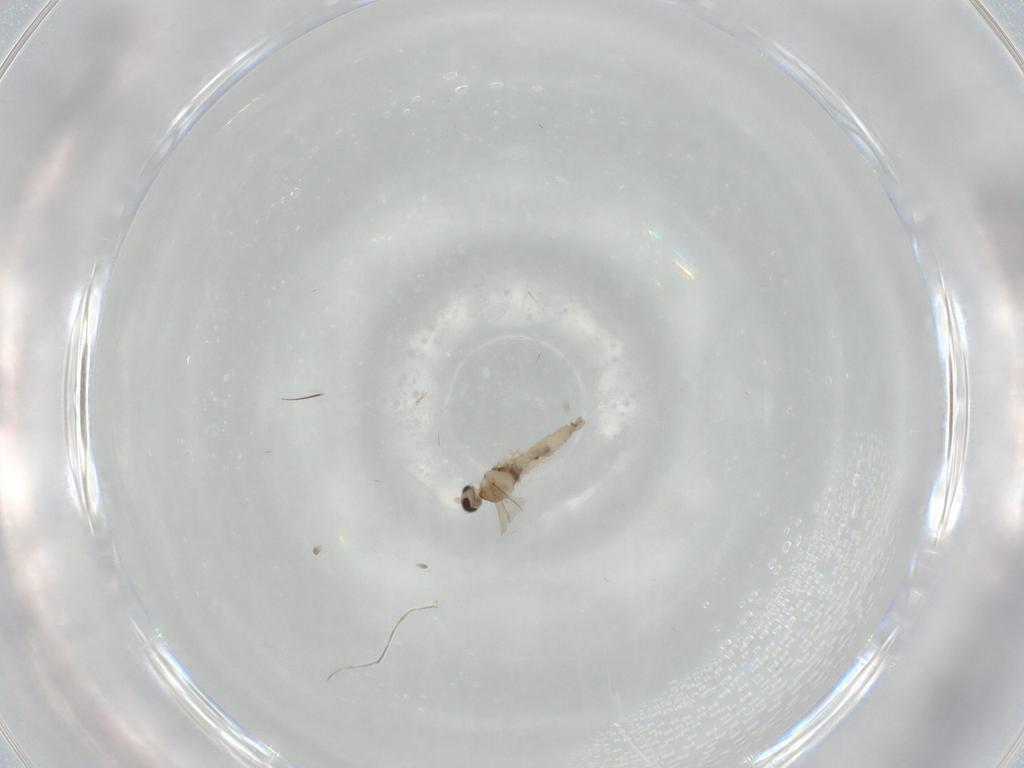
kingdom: Animalia
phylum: Arthropoda
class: Insecta
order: Diptera
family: Cecidomyiidae
